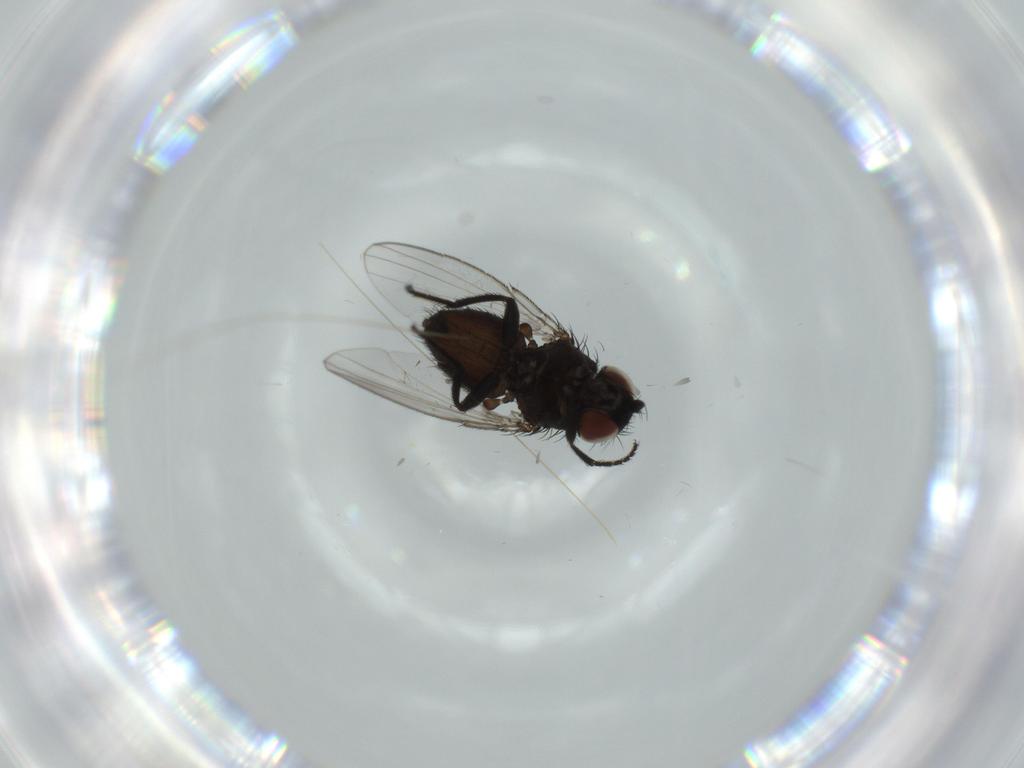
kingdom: Animalia
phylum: Arthropoda
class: Insecta
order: Diptera
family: Milichiidae
